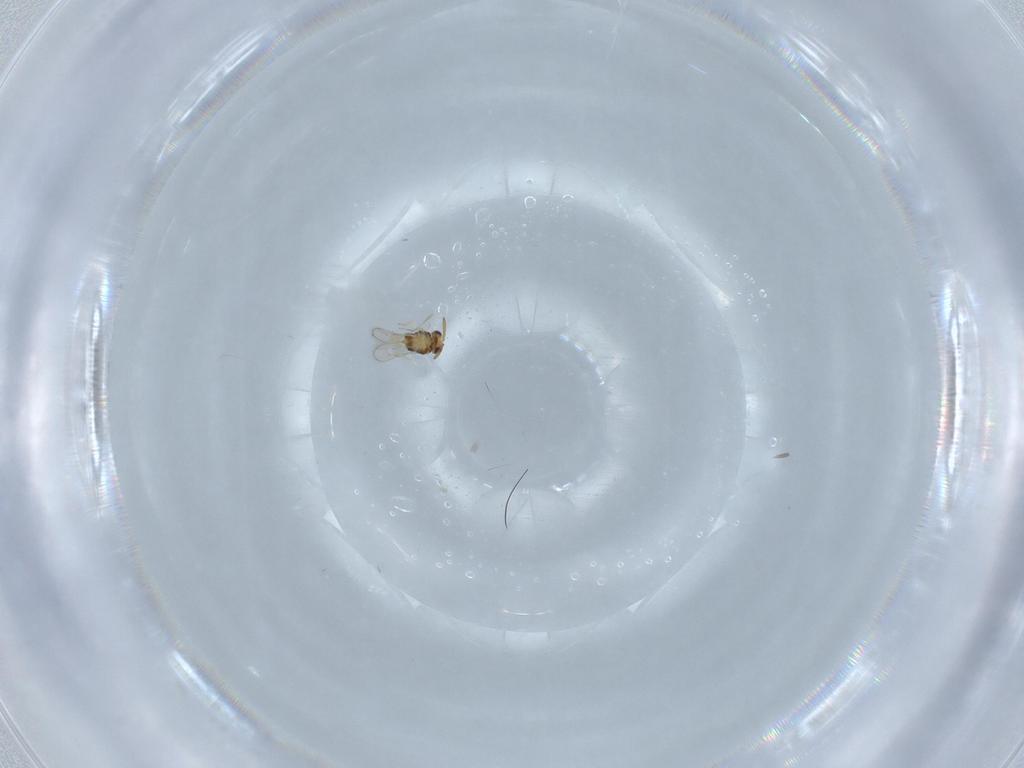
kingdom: Animalia
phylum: Arthropoda
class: Insecta
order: Hymenoptera
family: Aphelinidae
